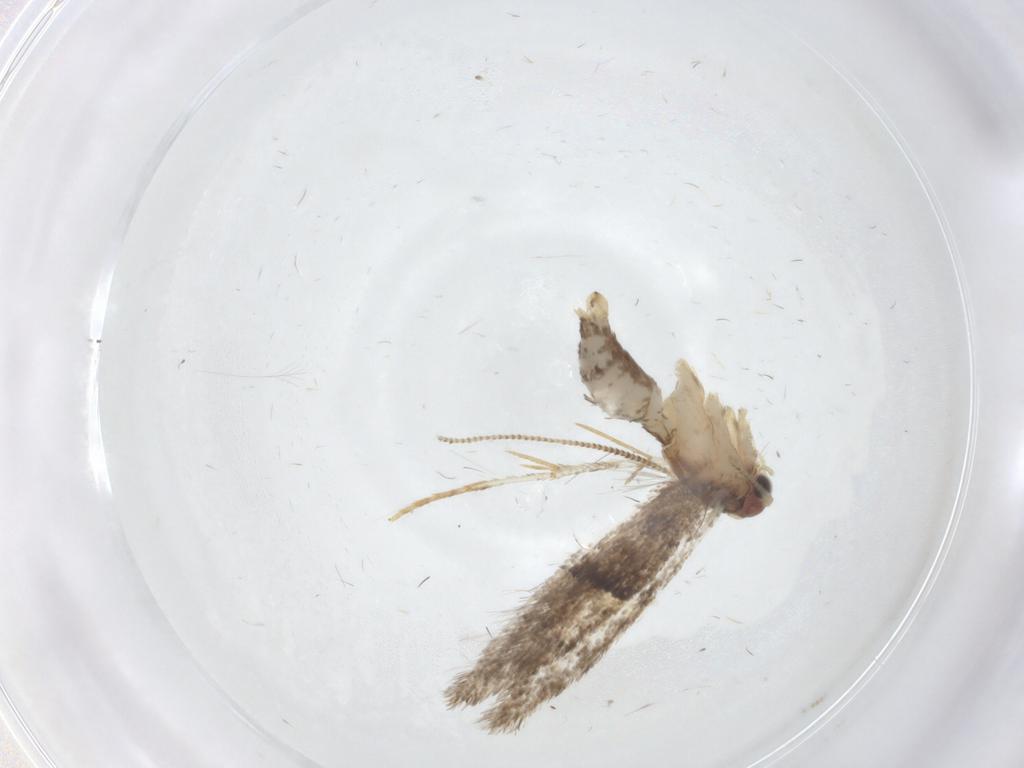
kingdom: Animalia
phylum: Arthropoda
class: Insecta
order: Lepidoptera
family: Tineidae
